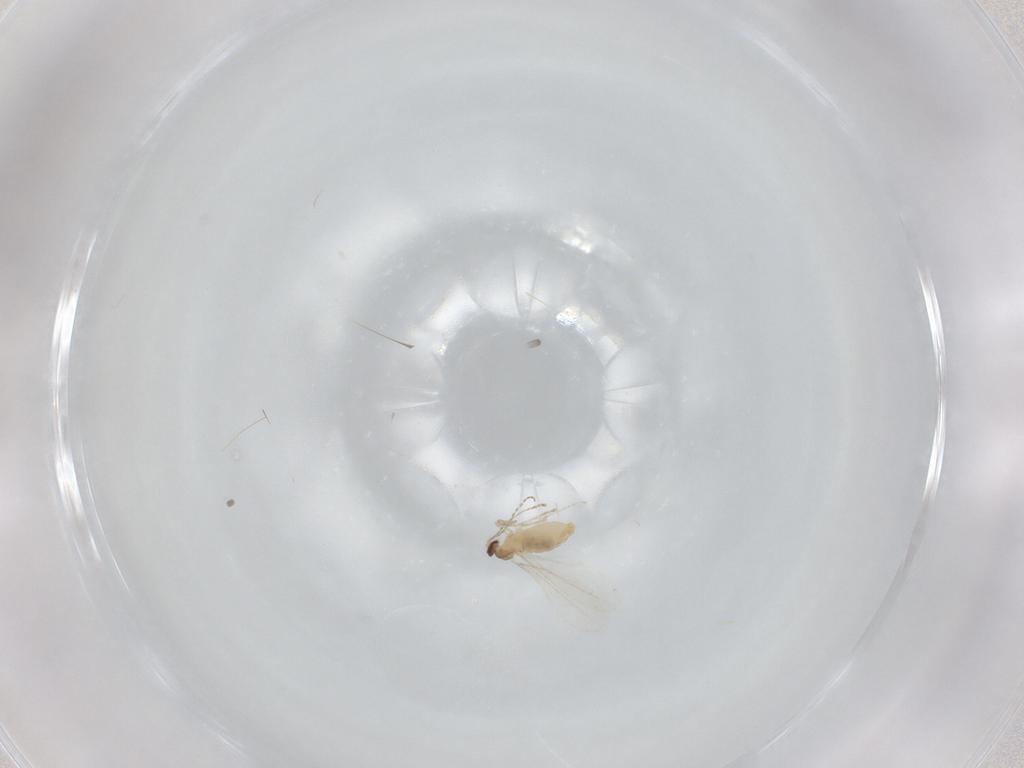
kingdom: Animalia
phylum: Arthropoda
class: Insecta
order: Diptera
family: Cecidomyiidae
